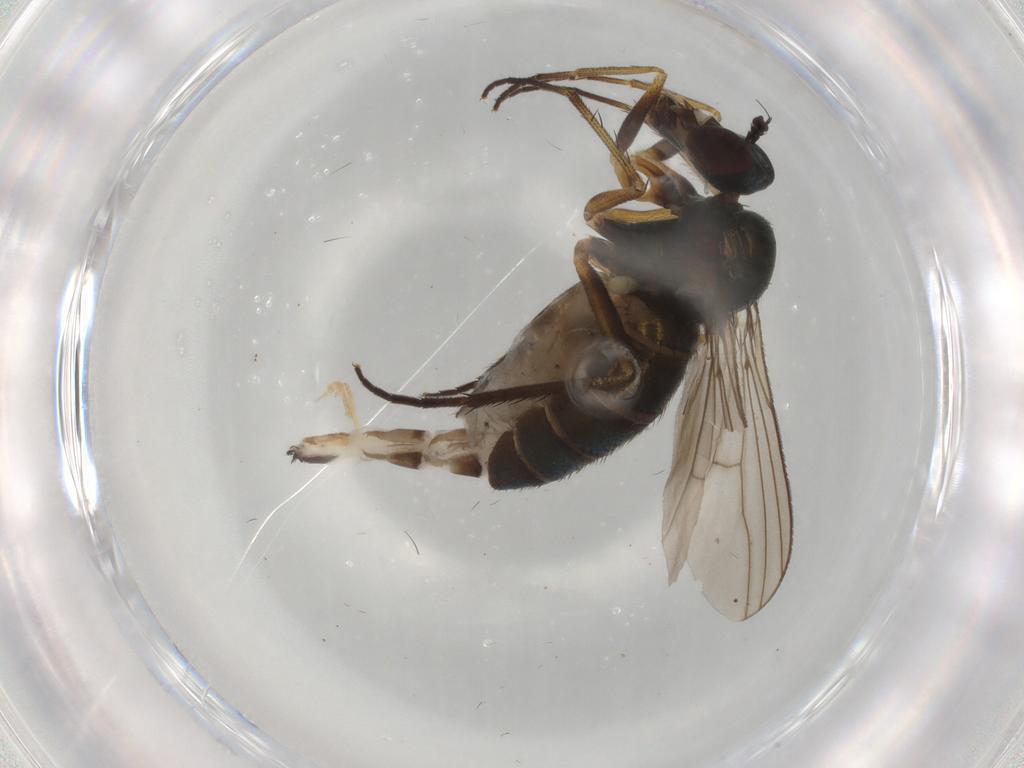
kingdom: Animalia
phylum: Arthropoda
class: Insecta
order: Diptera
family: Dolichopodidae
